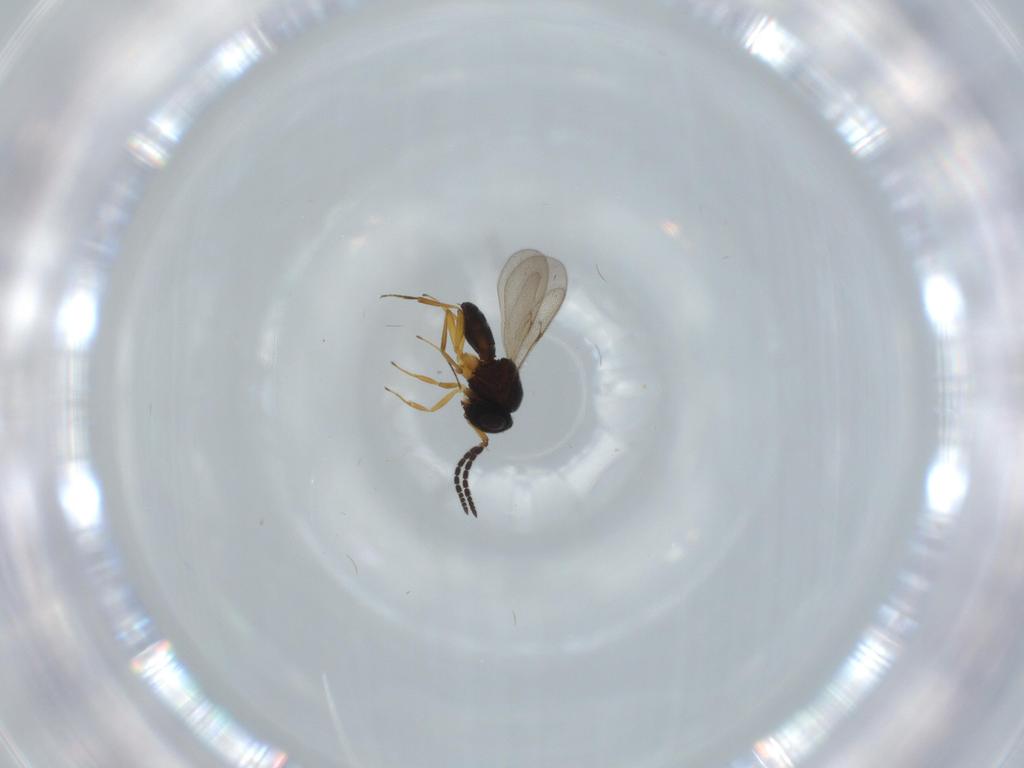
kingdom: Animalia
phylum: Arthropoda
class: Insecta
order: Coleoptera
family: Curculionidae
